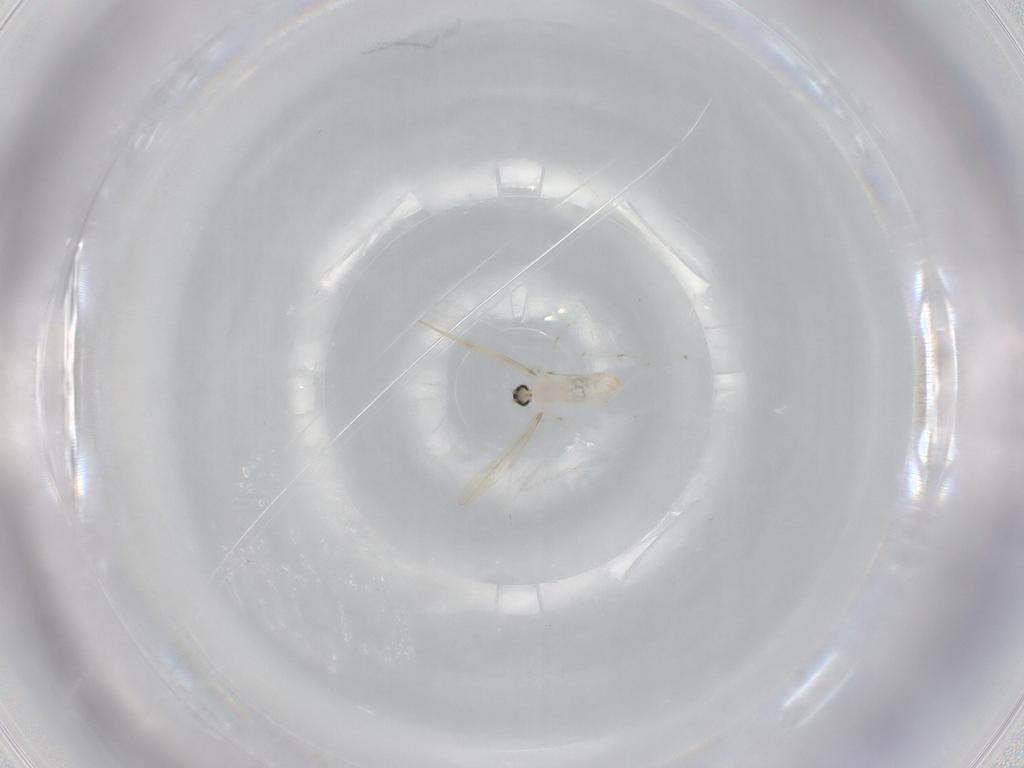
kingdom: Animalia
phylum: Arthropoda
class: Insecta
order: Diptera
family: Cecidomyiidae
